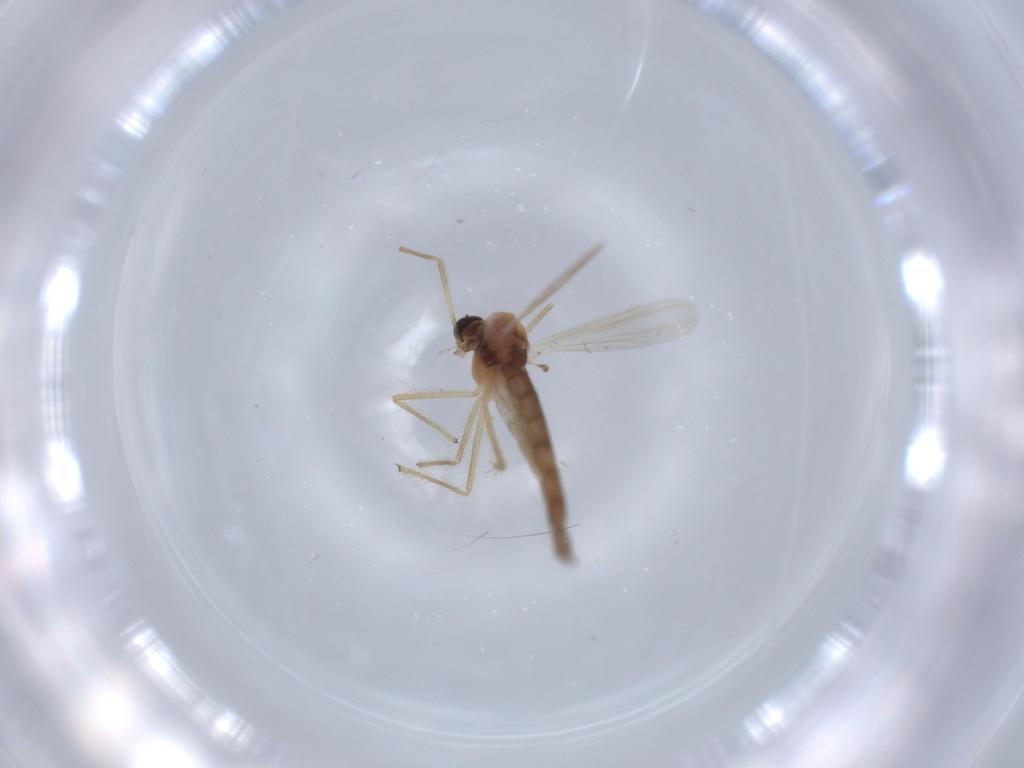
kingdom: Animalia
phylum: Arthropoda
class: Insecta
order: Diptera
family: Chironomidae
